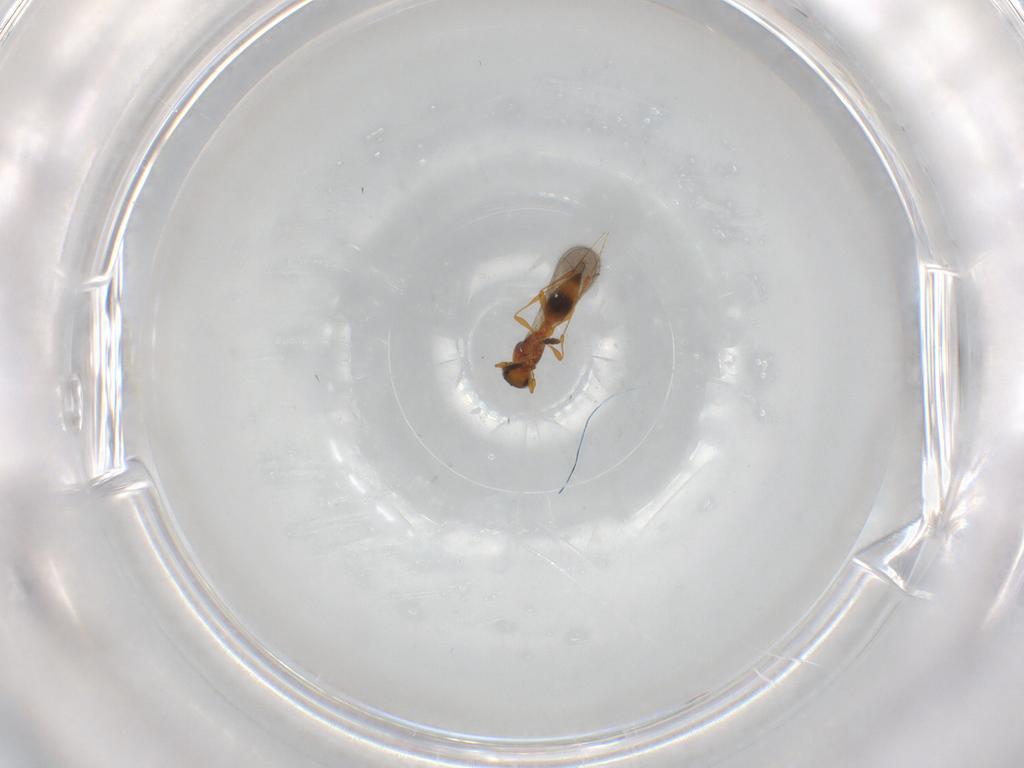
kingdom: Animalia
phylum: Arthropoda
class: Insecta
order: Hymenoptera
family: Platygastridae
